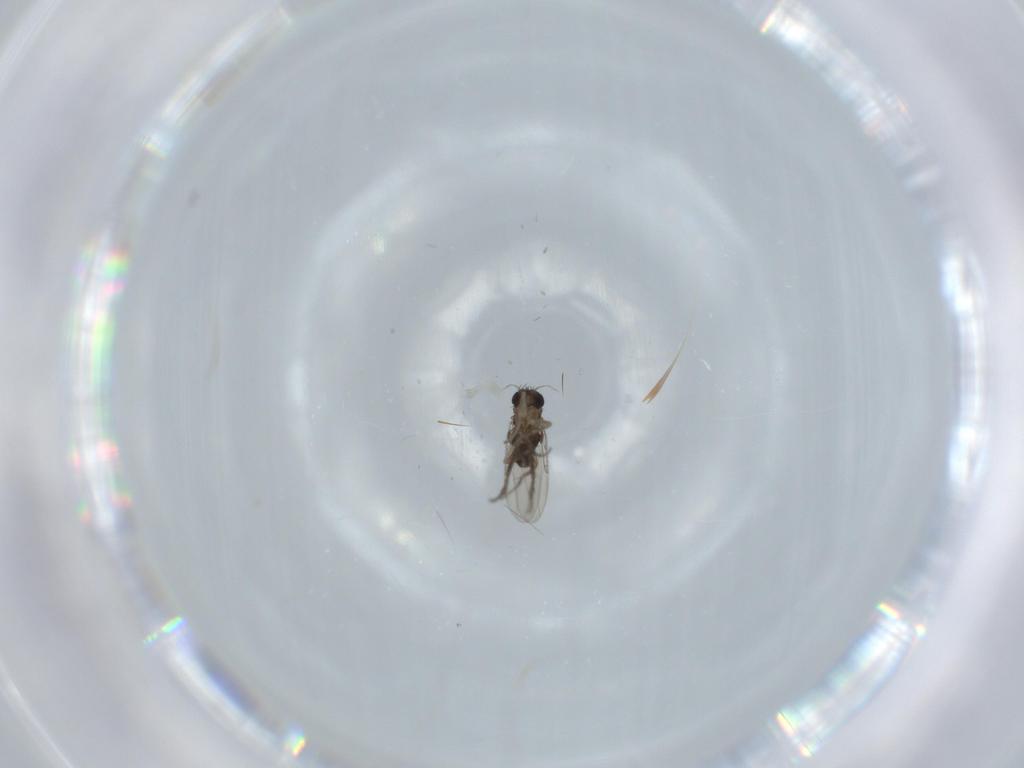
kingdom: Animalia
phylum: Arthropoda
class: Insecta
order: Diptera
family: Phoridae
